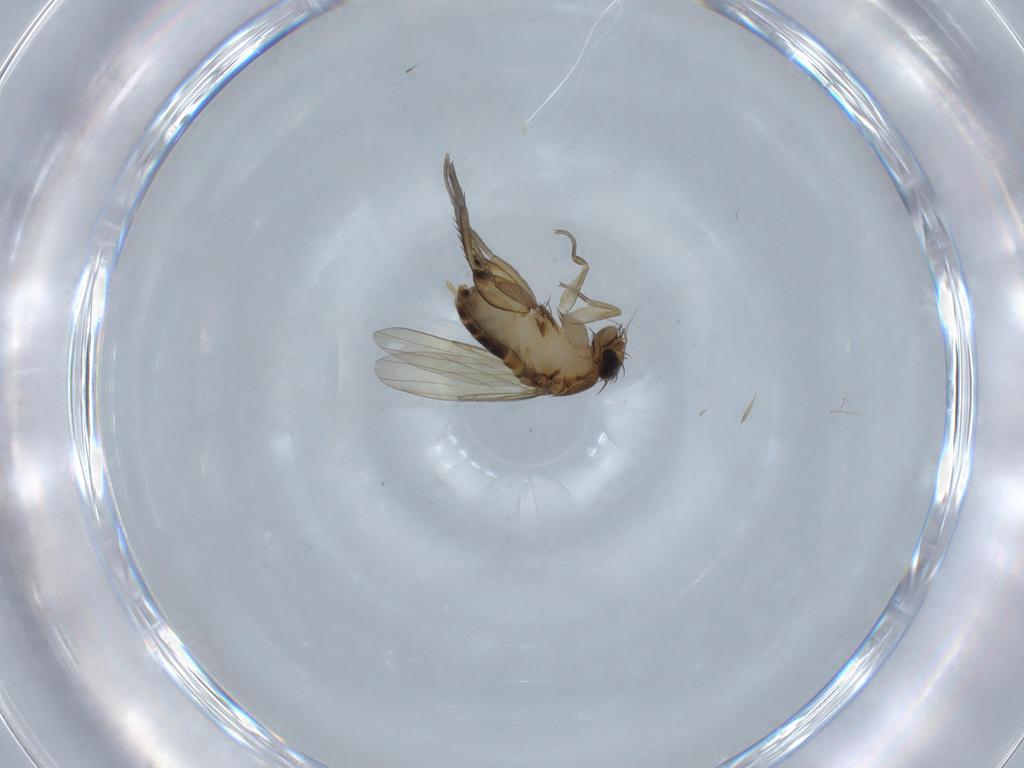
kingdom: Animalia
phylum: Arthropoda
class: Insecta
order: Diptera
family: Phoridae
